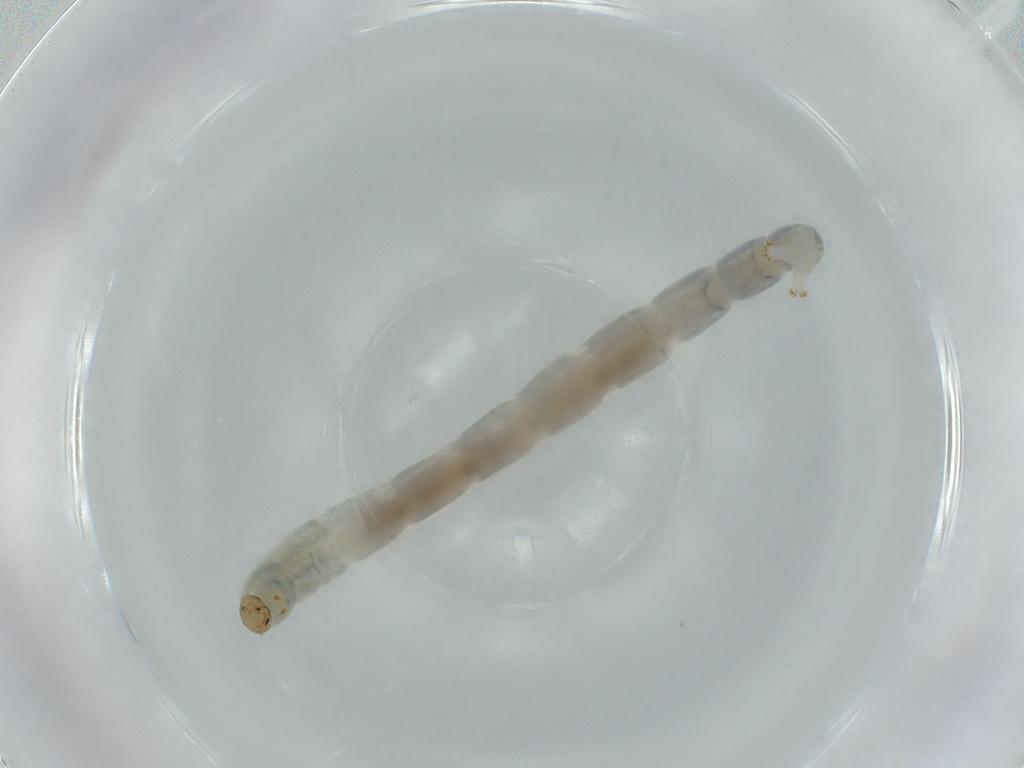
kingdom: Animalia
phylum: Arthropoda
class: Insecta
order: Diptera
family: Chironomidae
